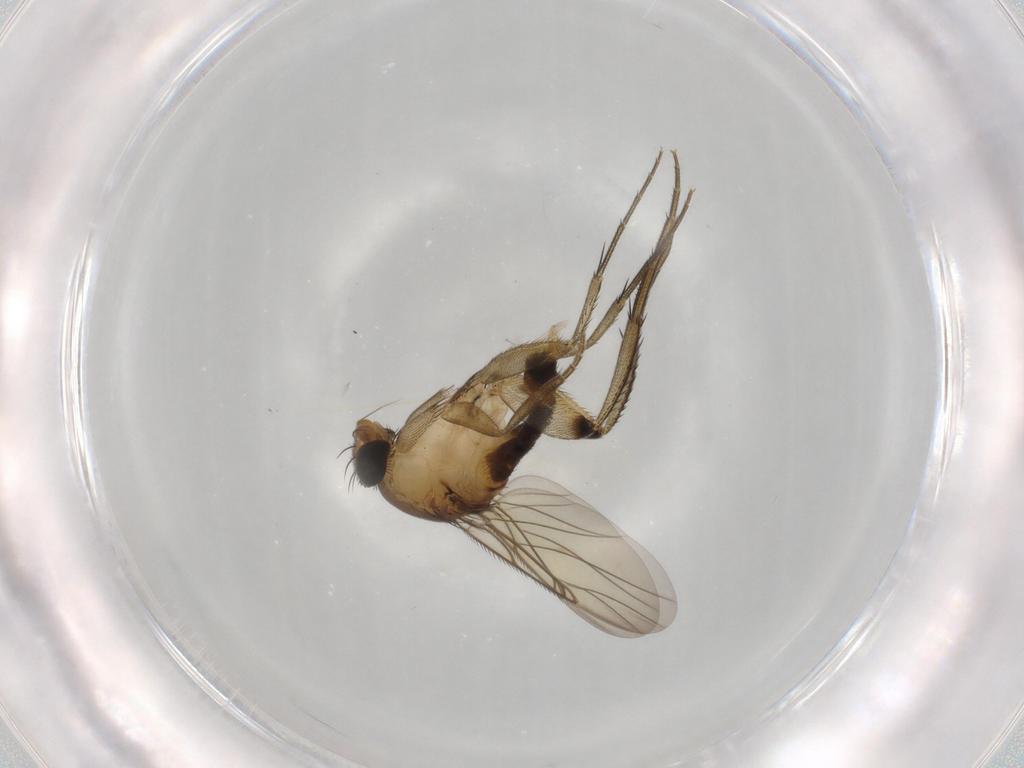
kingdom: Animalia
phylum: Arthropoda
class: Insecta
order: Diptera
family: Phoridae
